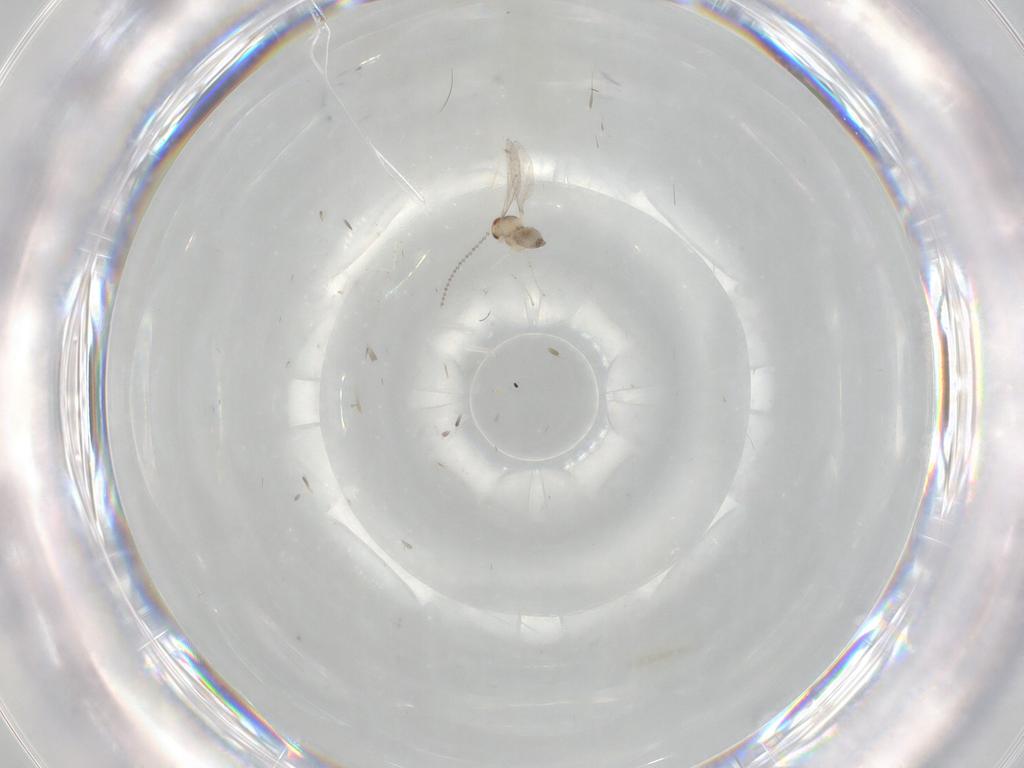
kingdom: Animalia
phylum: Arthropoda
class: Insecta
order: Diptera
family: Cecidomyiidae
